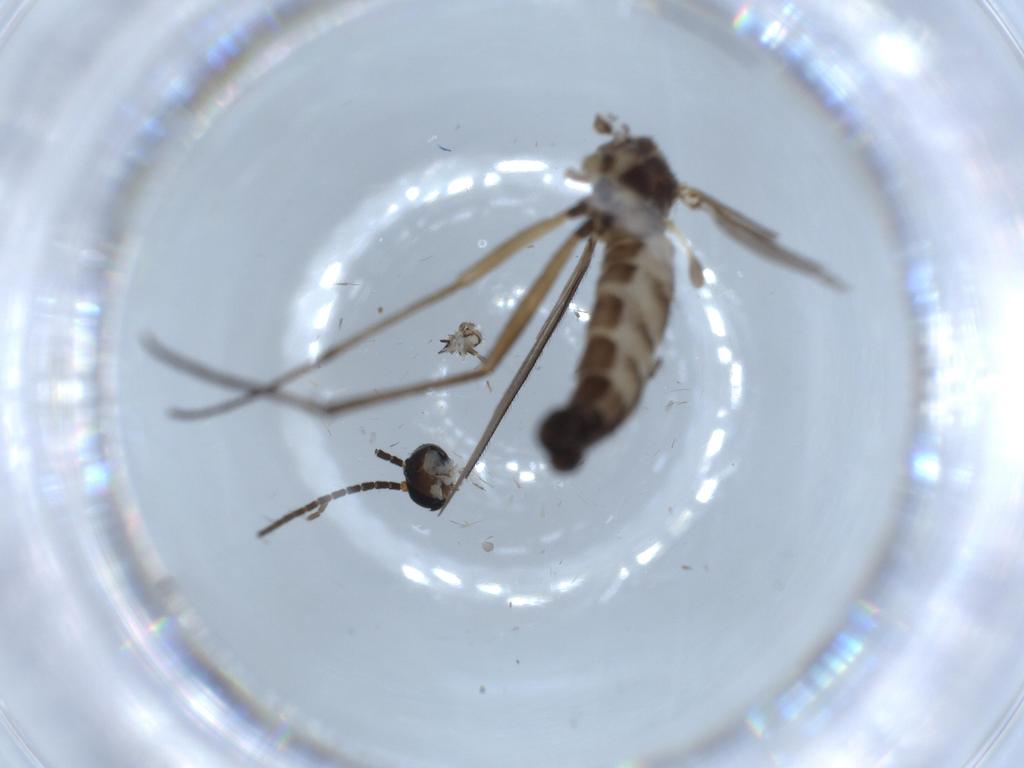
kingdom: Animalia
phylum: Arthropoda
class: Insecta
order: Diptera
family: Sciaridae
